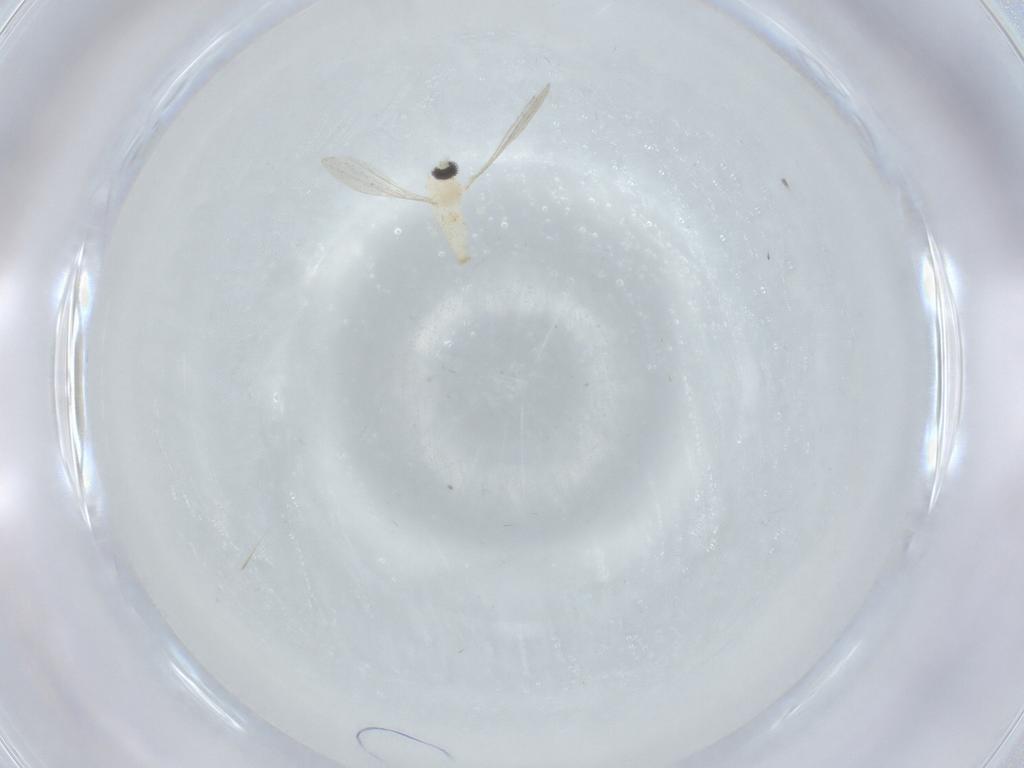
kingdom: Animalia
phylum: Arthropoda
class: Insecta
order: Diptera
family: Cecidomyiidae
